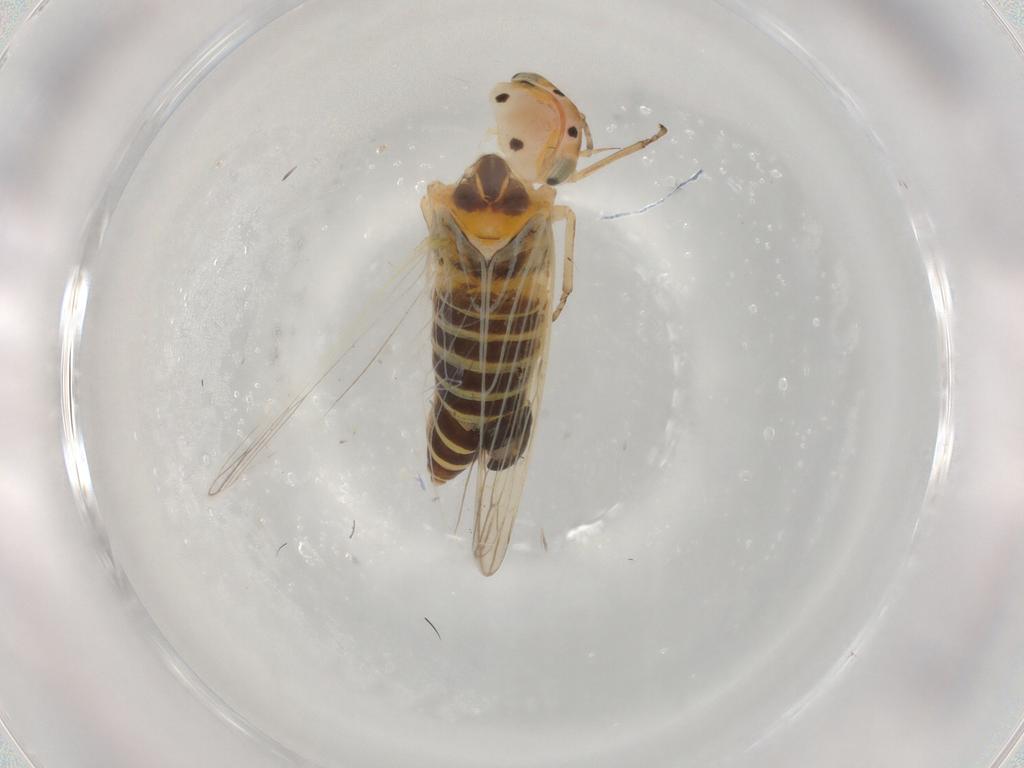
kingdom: Animalia
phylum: Arthropoda
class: Insecta
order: Hemiptera
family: Cicadellidae
